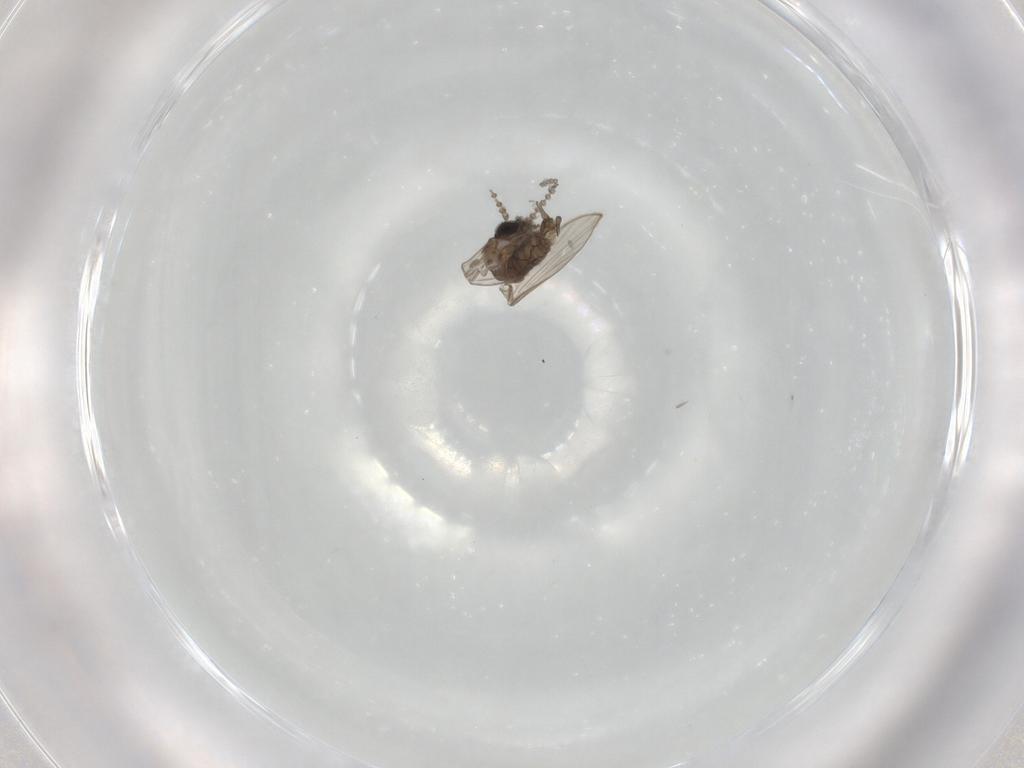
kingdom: Animalia
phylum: Arthropoda
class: Insecta
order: Diptera
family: Psychodidae
